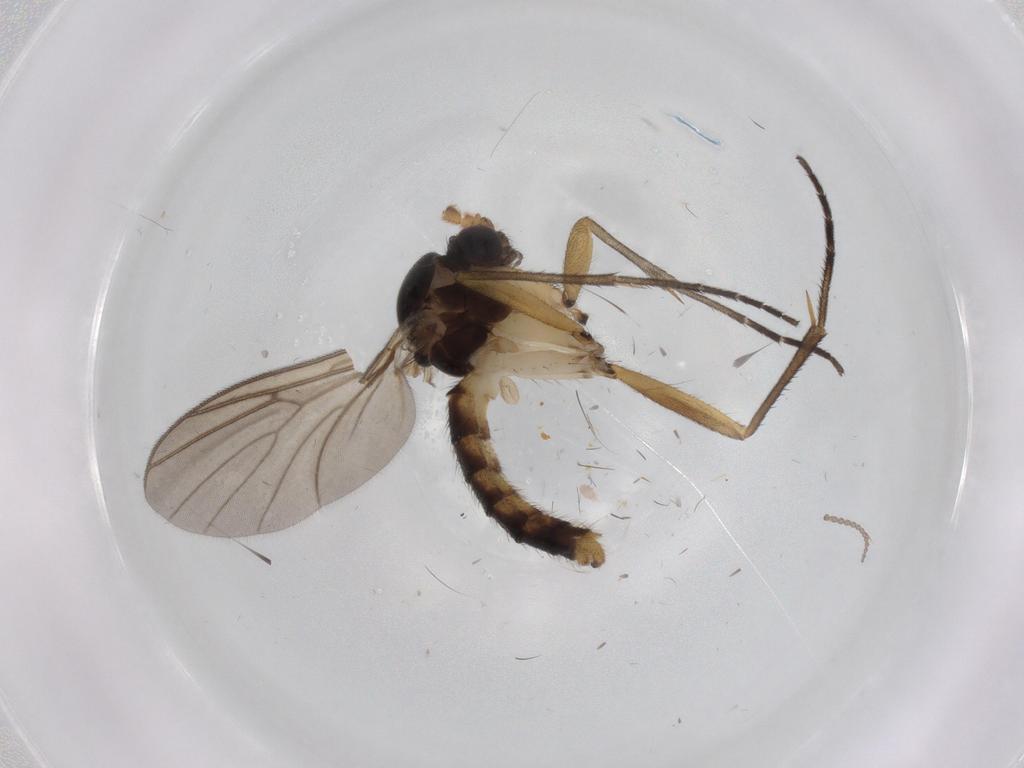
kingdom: Animalia
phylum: Arthropoda
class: Insecta
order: Diptera
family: Mycetophilidae
